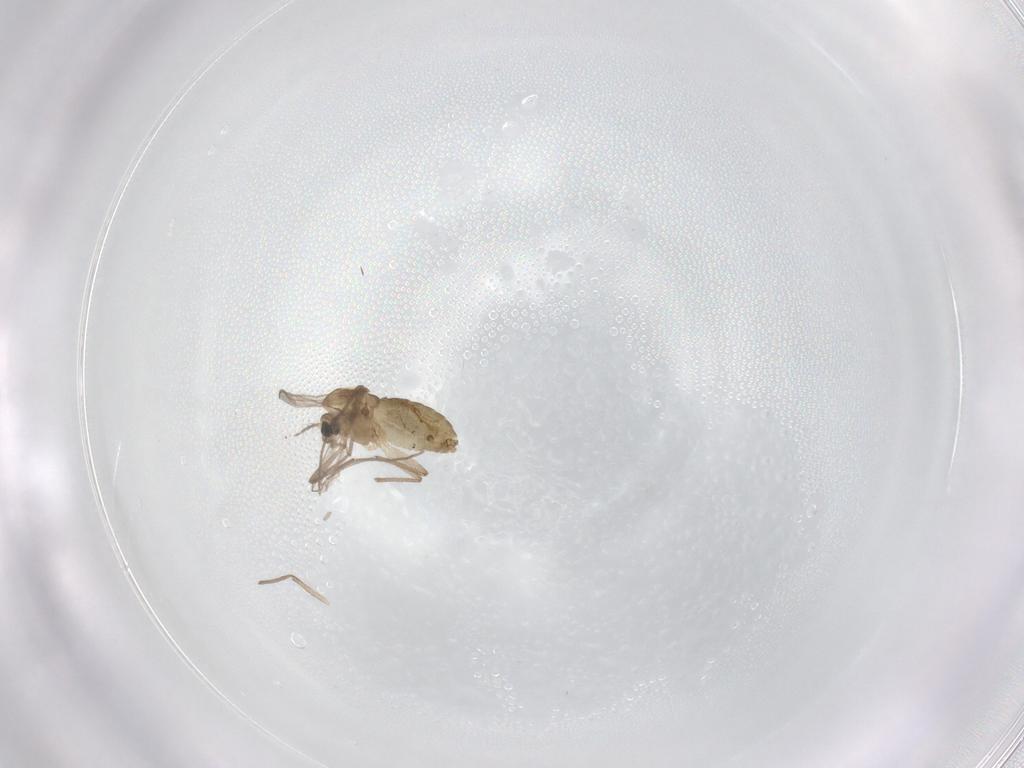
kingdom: Animalia
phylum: Arthropoda
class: Insecta
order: Diptera
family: Chironomidae
